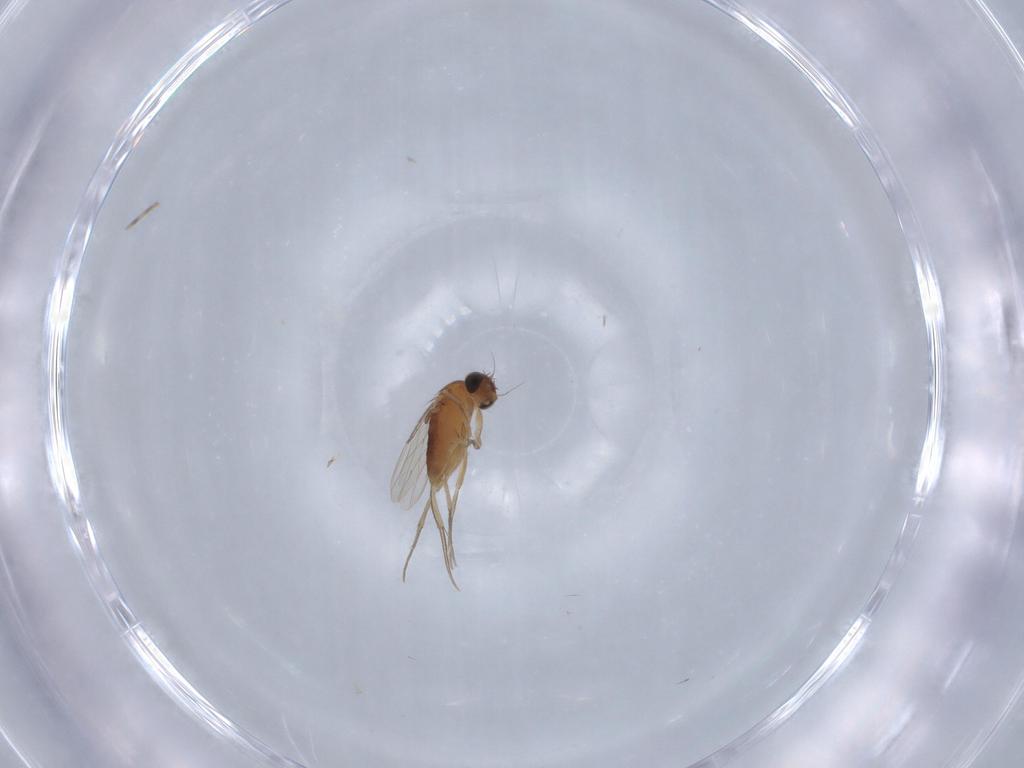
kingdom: Animalia
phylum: Arthropoda
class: Insecta
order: Diptera
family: Phoridae
